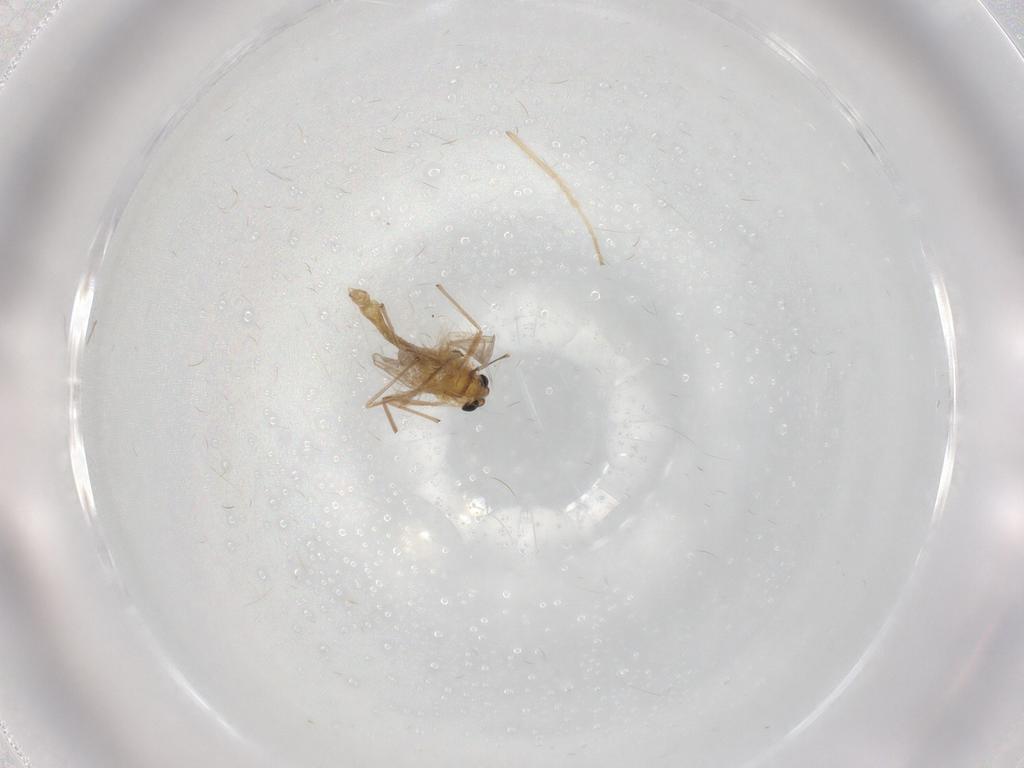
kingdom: Animalia
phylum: Arthropoda
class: Insecta
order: Diptera
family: Chironomidae
